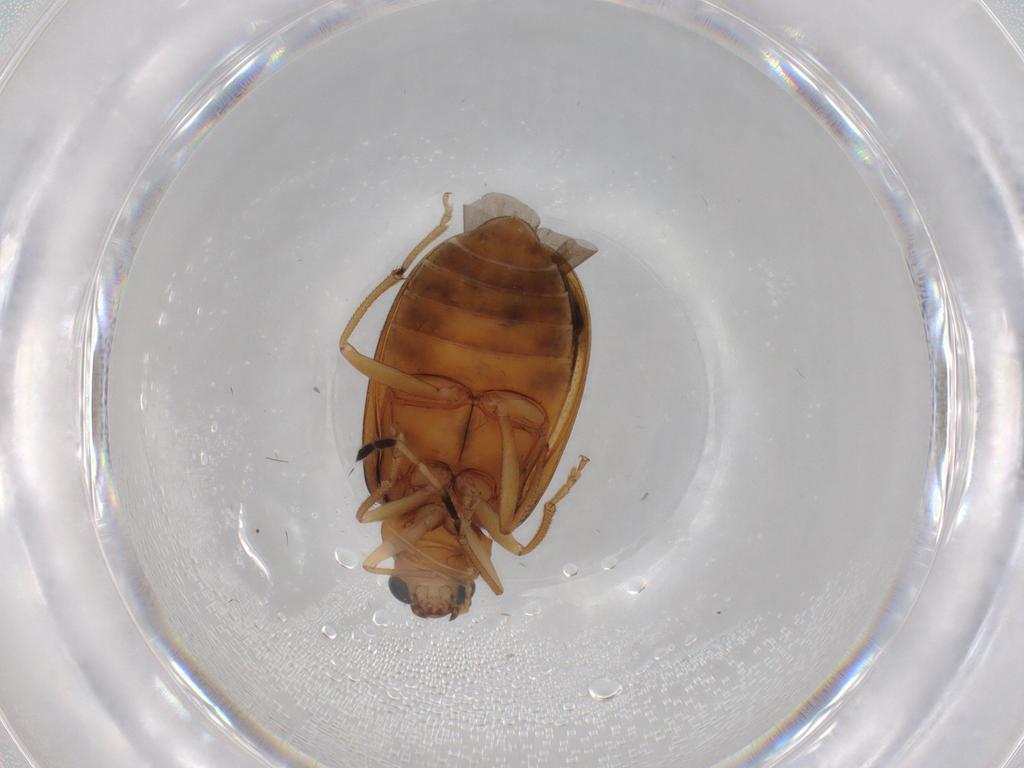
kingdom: Animalia
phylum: Arthropoda
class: Insecta
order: Coleoptera
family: Chrysomelidae
